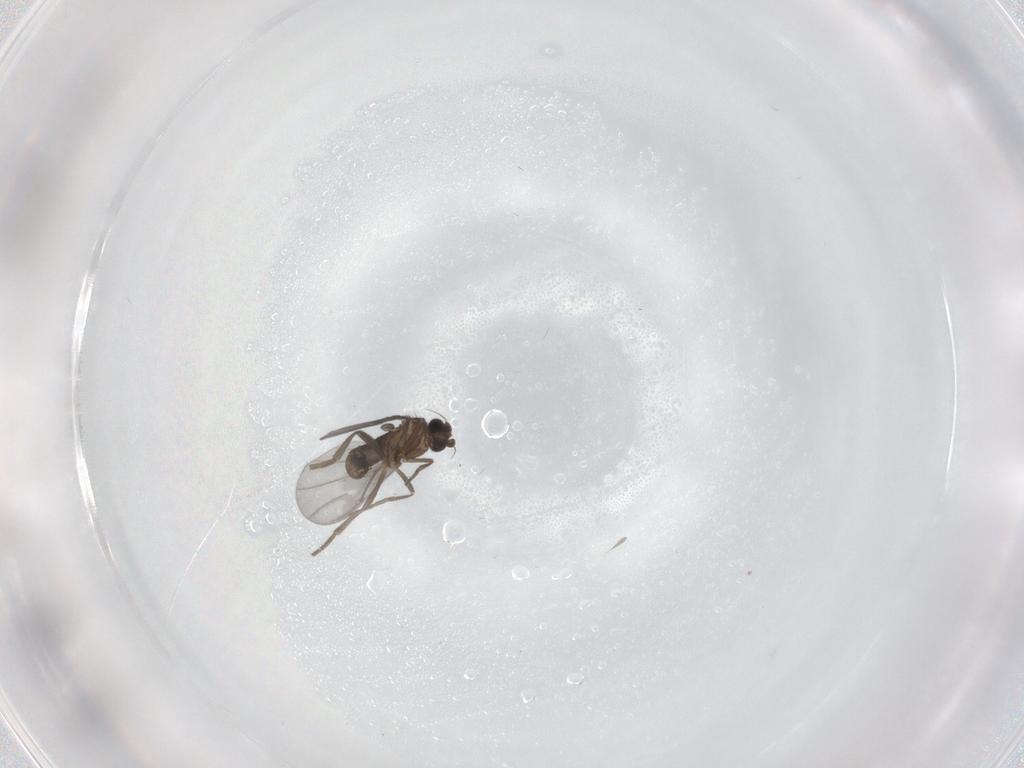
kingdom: Animalia
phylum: Arthropoda
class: Insecta
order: Diptera
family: Phoridae
